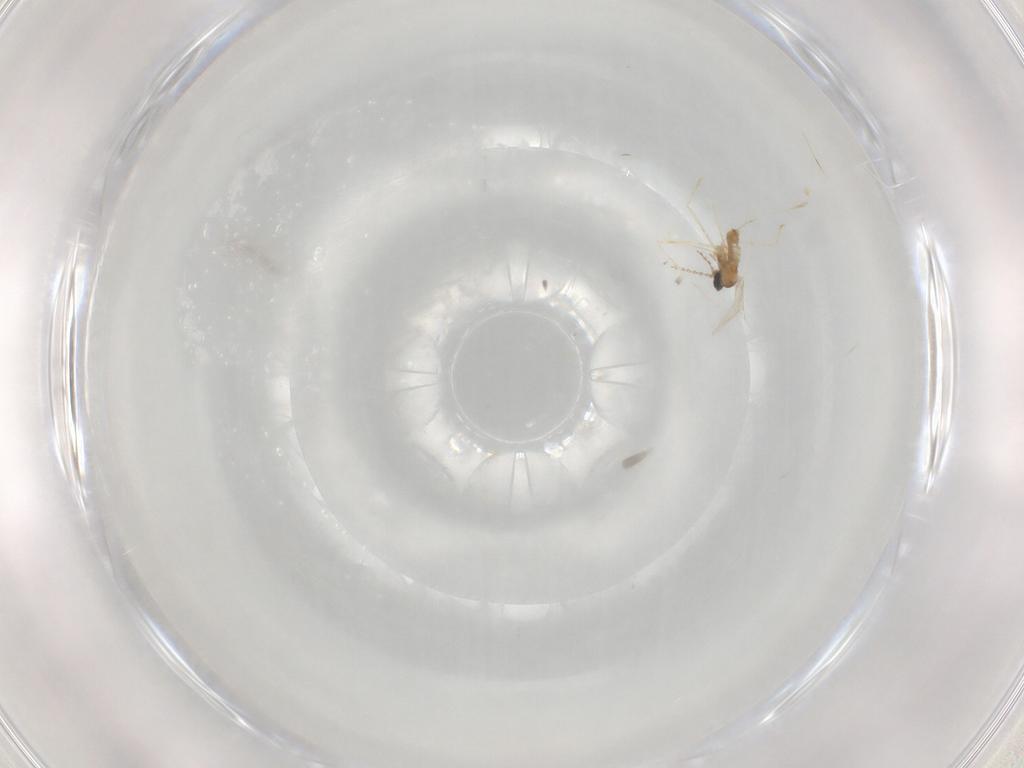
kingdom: Animalia
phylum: Arthropoda
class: Insecta
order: Diptera
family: Cecidomyiidae
